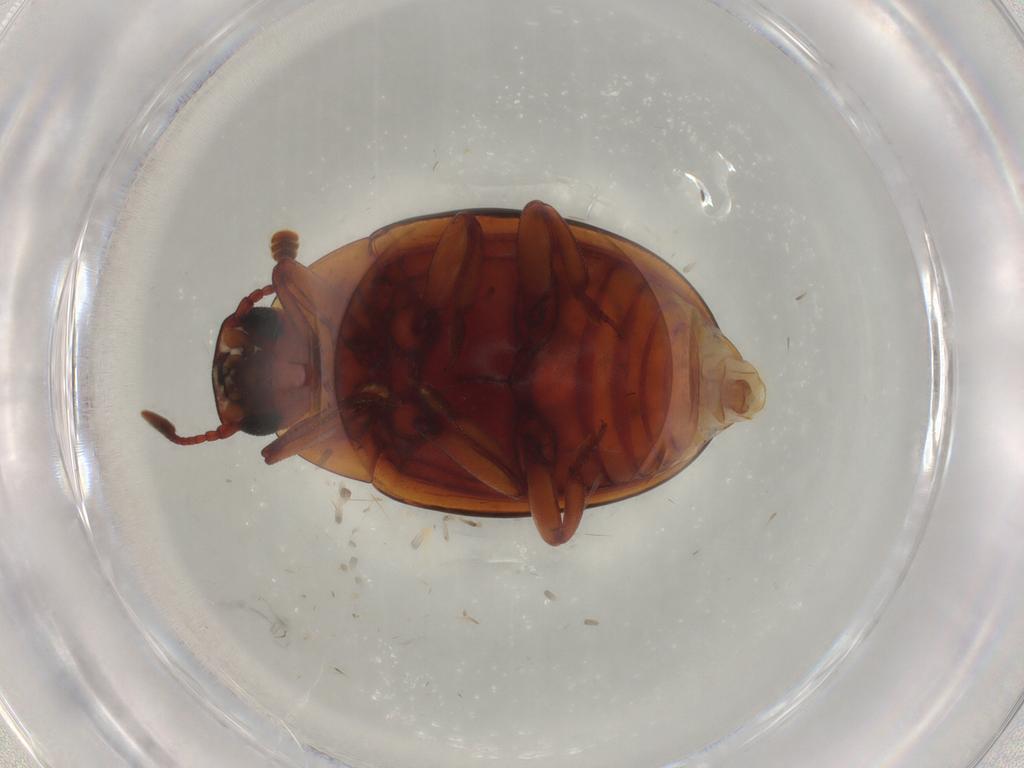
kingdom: Animalia
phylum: Arthropoda
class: Insecta
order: Coleoptera
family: Zopheridae
